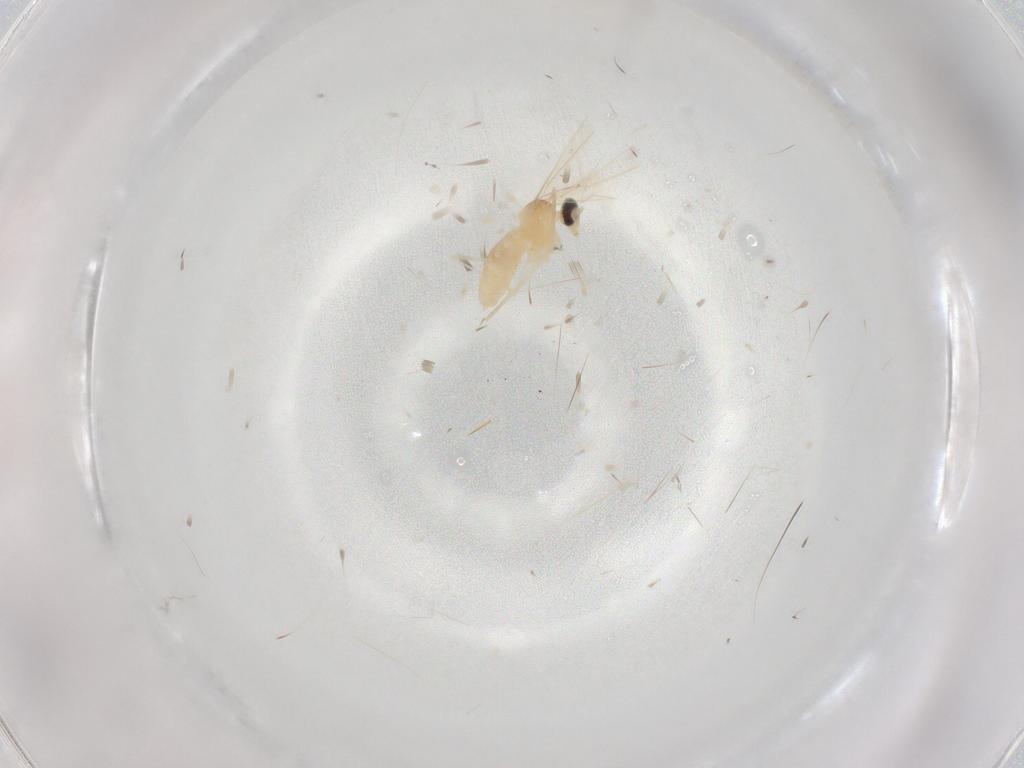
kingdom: Animalia
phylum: Arthropoda
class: Insecta
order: Diptera
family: Cecidomyiidae
